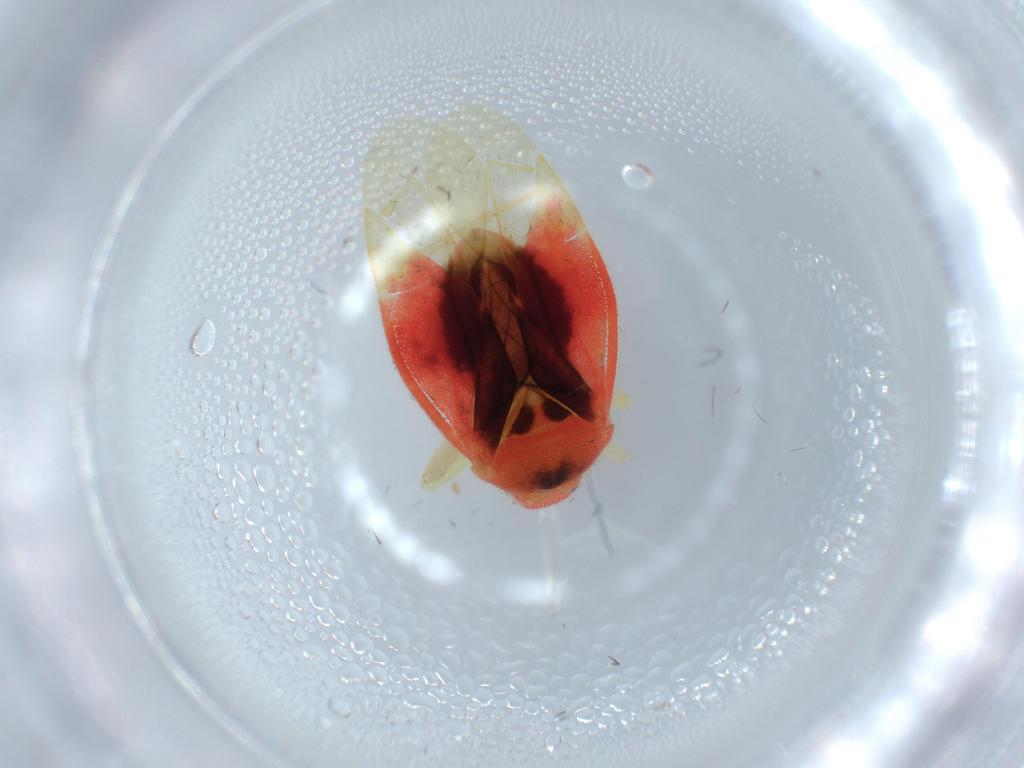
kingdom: Animalia
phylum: Arthropoda
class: Insecta
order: Hemiptera
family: Miridae
